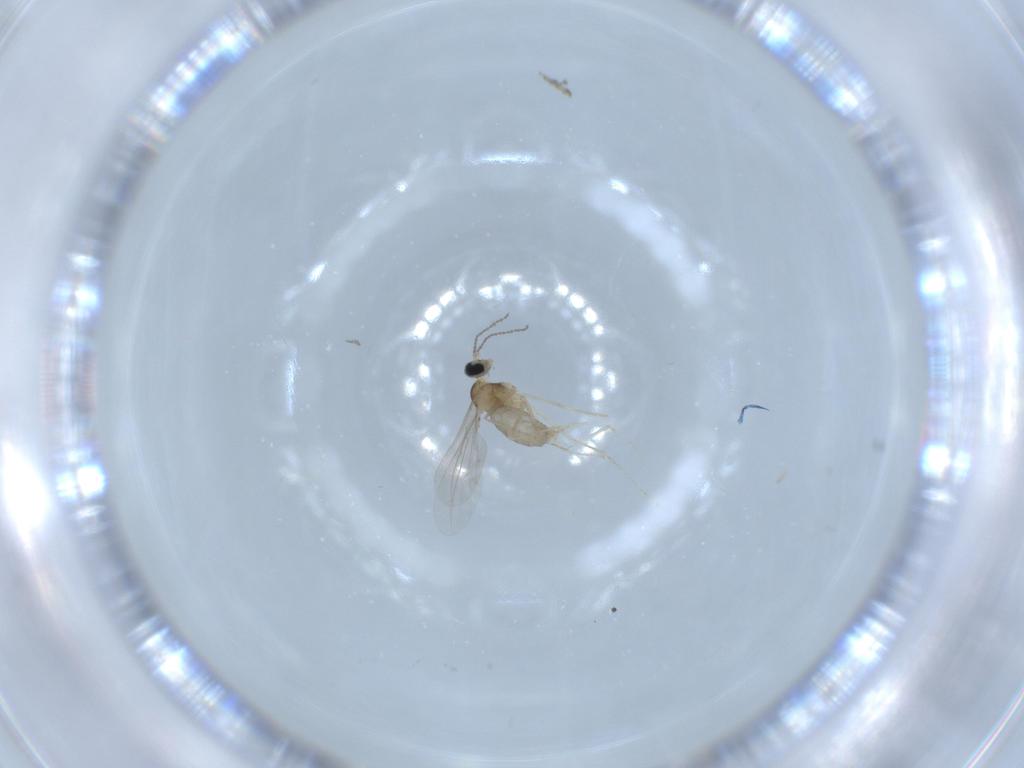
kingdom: Animalia
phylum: Arthropoda
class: Insecta
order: Diptera
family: Cecidomyiidae
